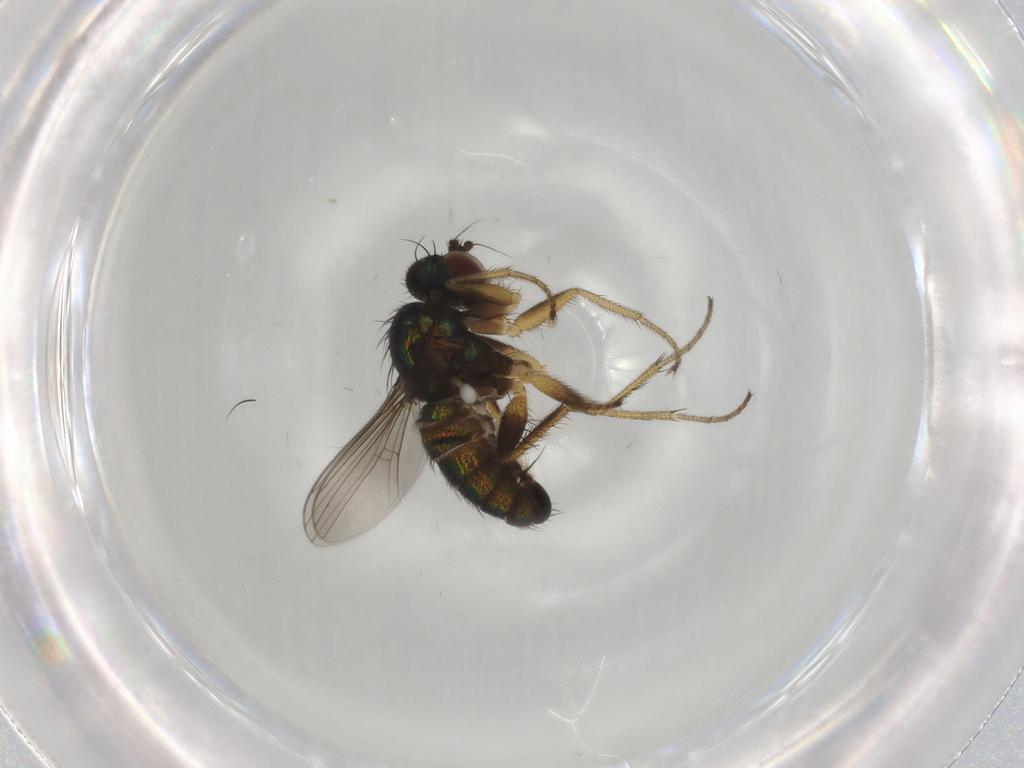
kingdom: Animalia
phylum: Arthropoda
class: Insecta
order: Diptera
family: Dolichopodidae
